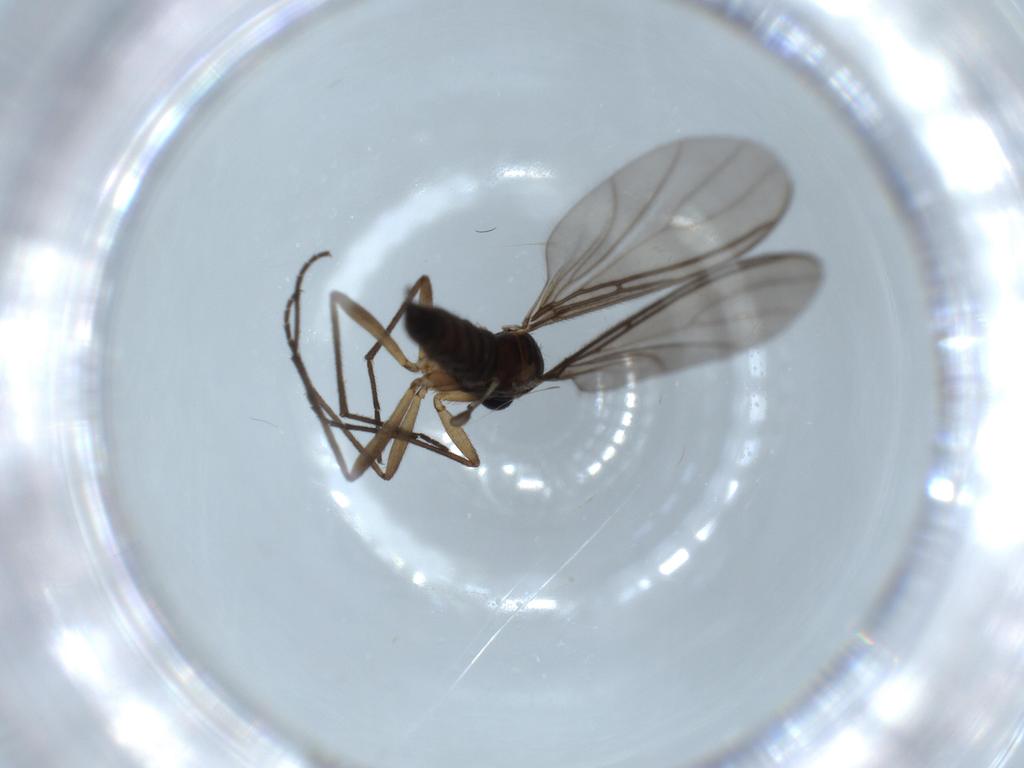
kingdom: Animalia
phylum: Arthropoda
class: Insecta
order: Diptera
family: Sciaridae
